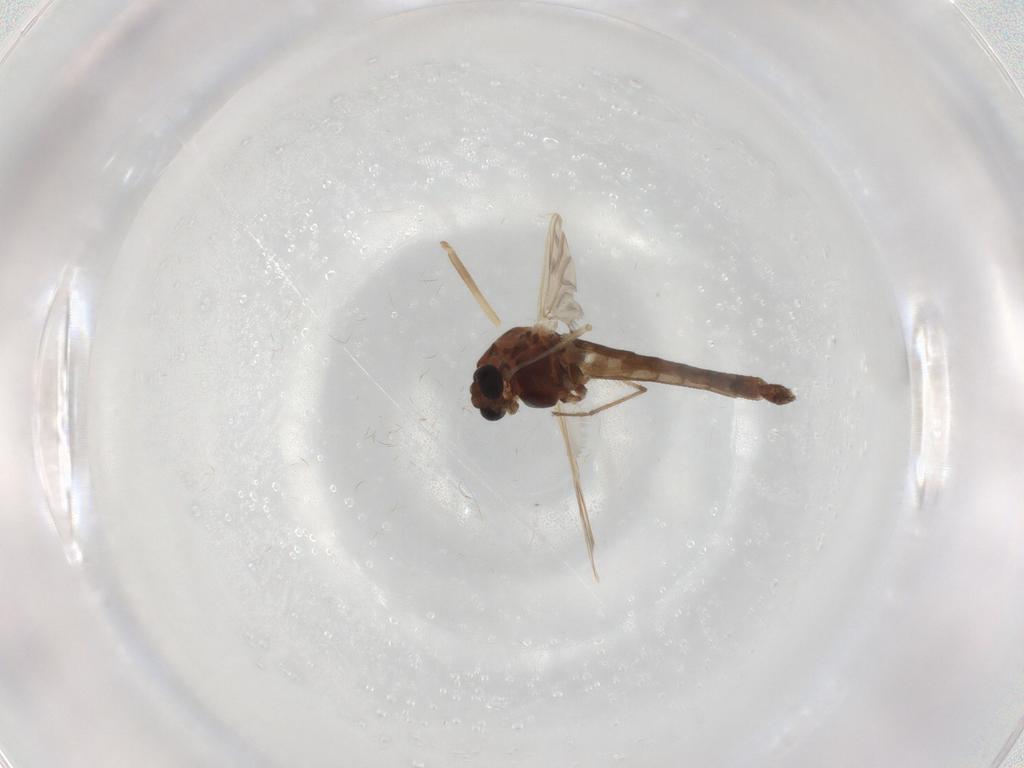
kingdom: Animalia
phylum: Arthropoda
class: Insecta
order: Diptera
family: Chironomidae
